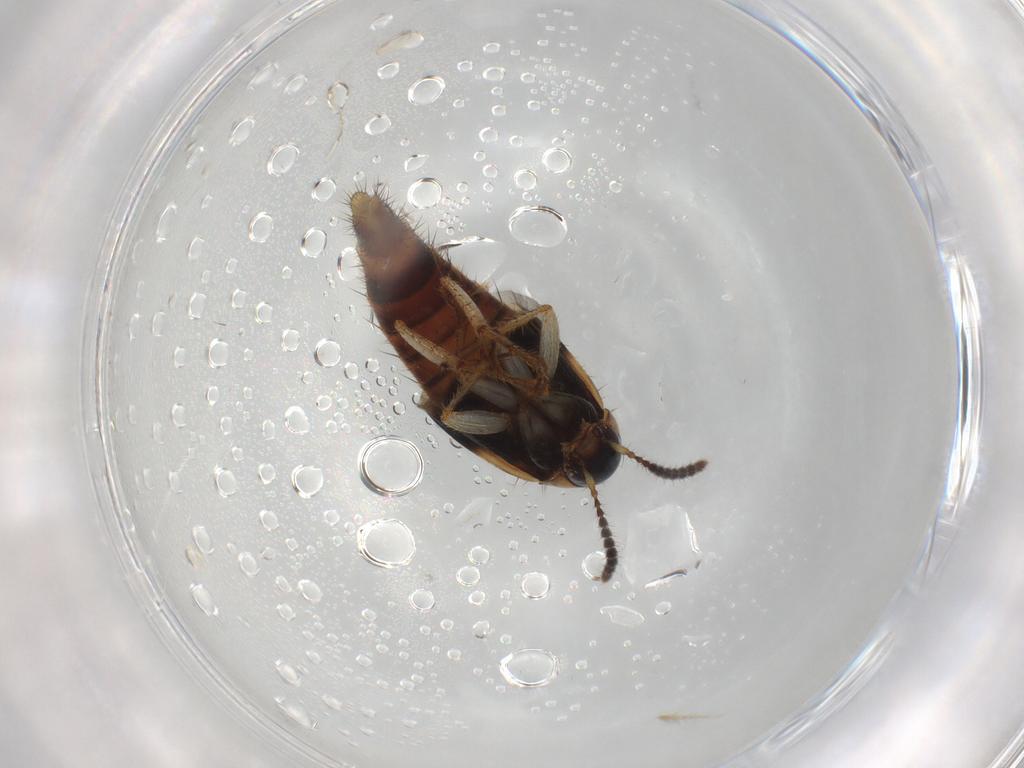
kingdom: Animalia
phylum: Arthropoda
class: Insecta
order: Coleoptera
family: Staphylinidae
